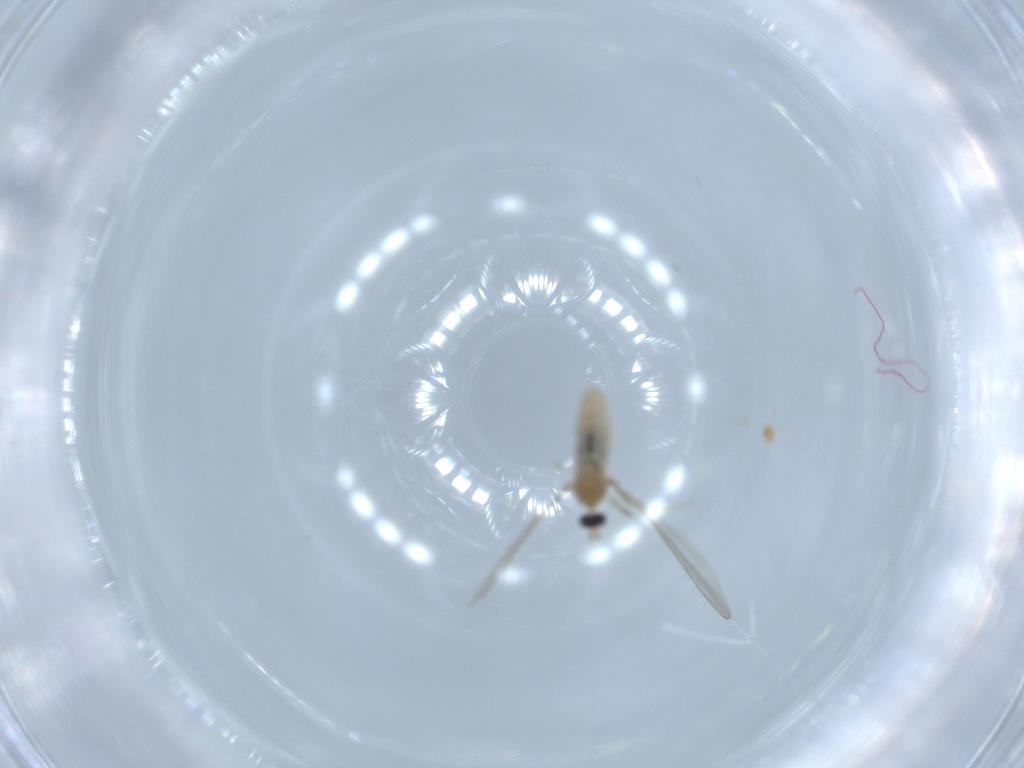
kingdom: Animalia
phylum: Arthropoda
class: Insecta
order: Diptera
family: Cecidomyiidae
